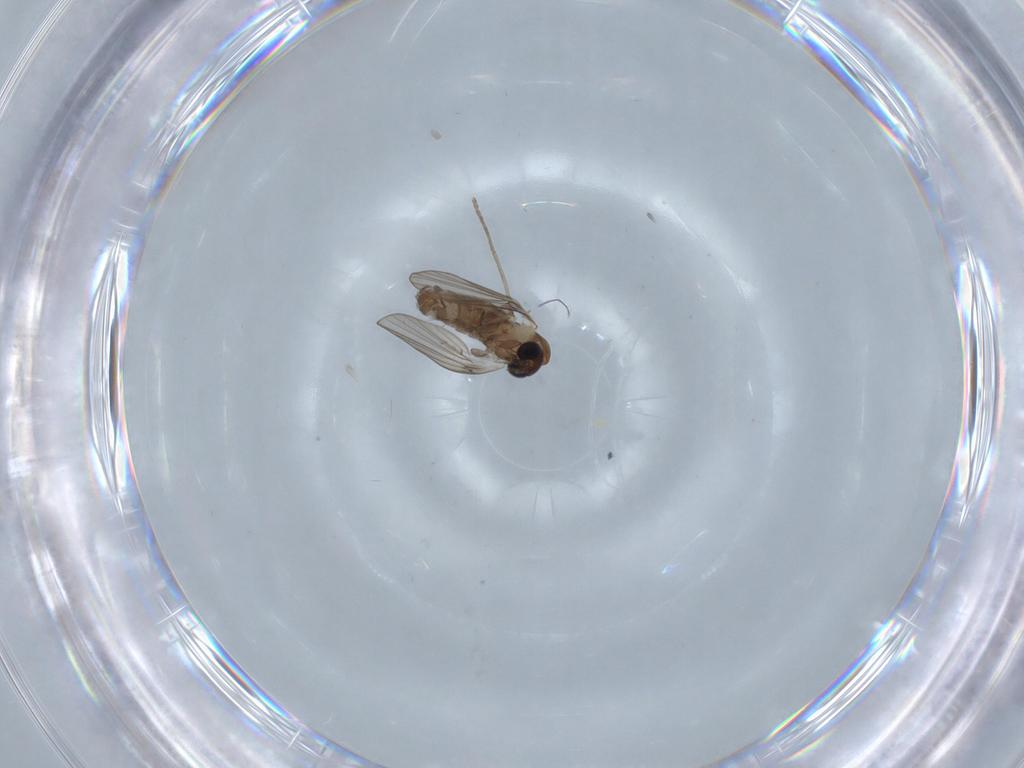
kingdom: Animalia
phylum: Arthropoda
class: Insecta
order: Diptera
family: Chironomidae
